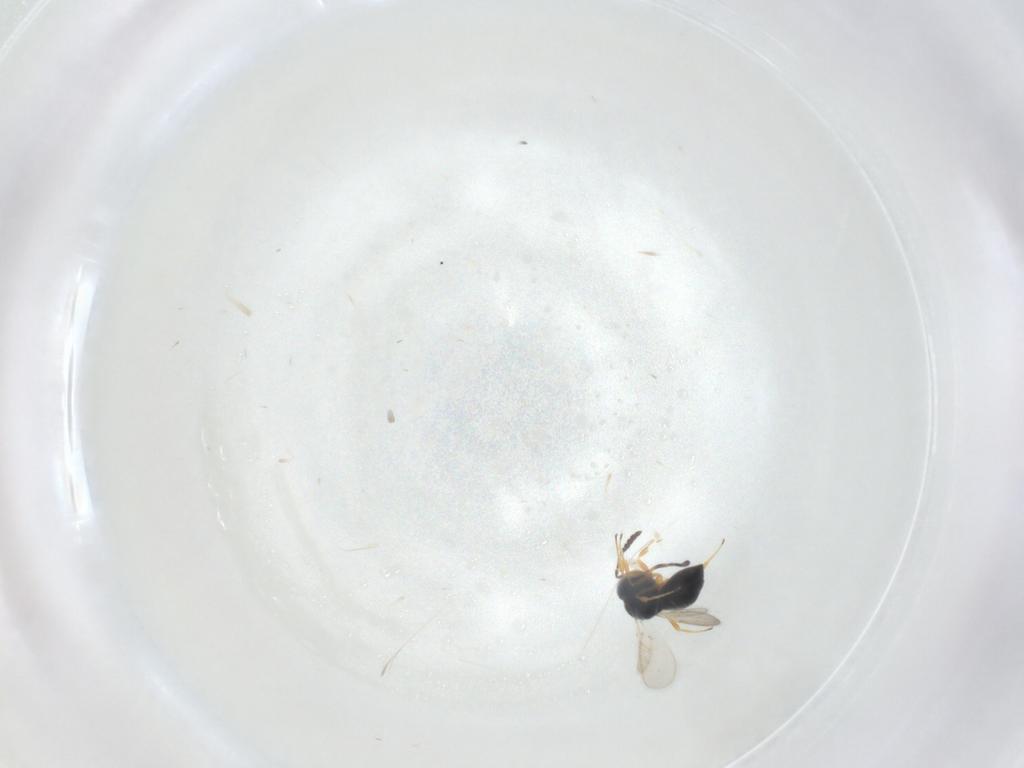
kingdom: Animalia
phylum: Arthropoda
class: Insecta
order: Hymenoptera
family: Scelionidae
